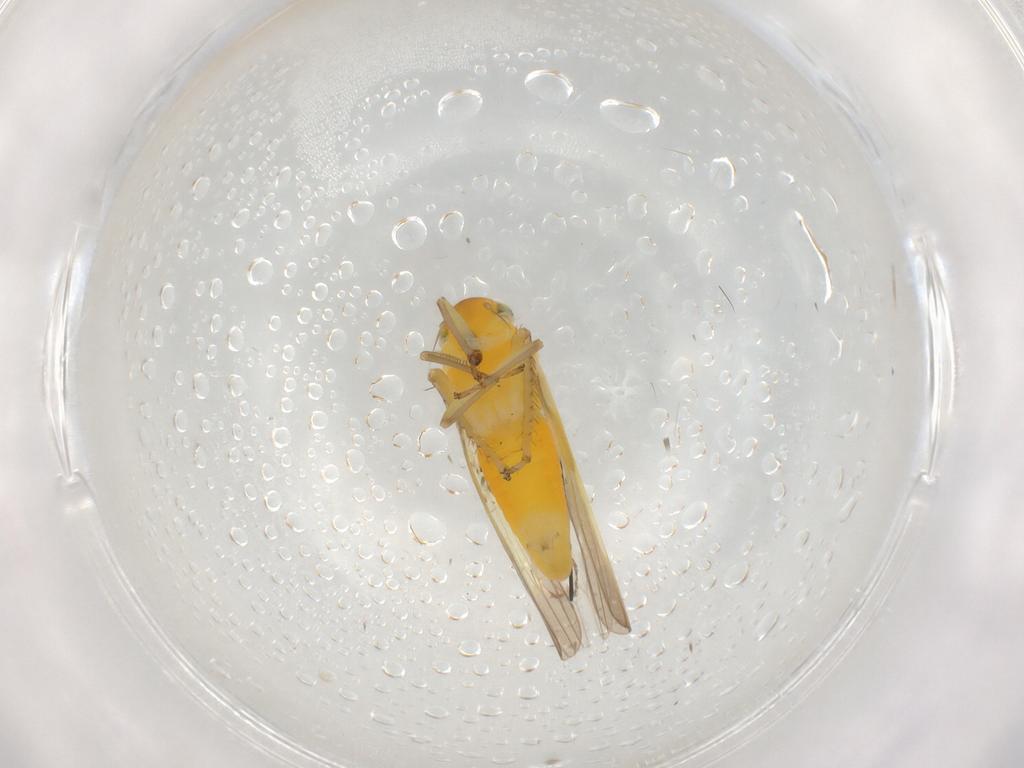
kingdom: Animalia
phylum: Arthropoda
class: Insecta
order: Hemiptera
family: Cicadellidae
